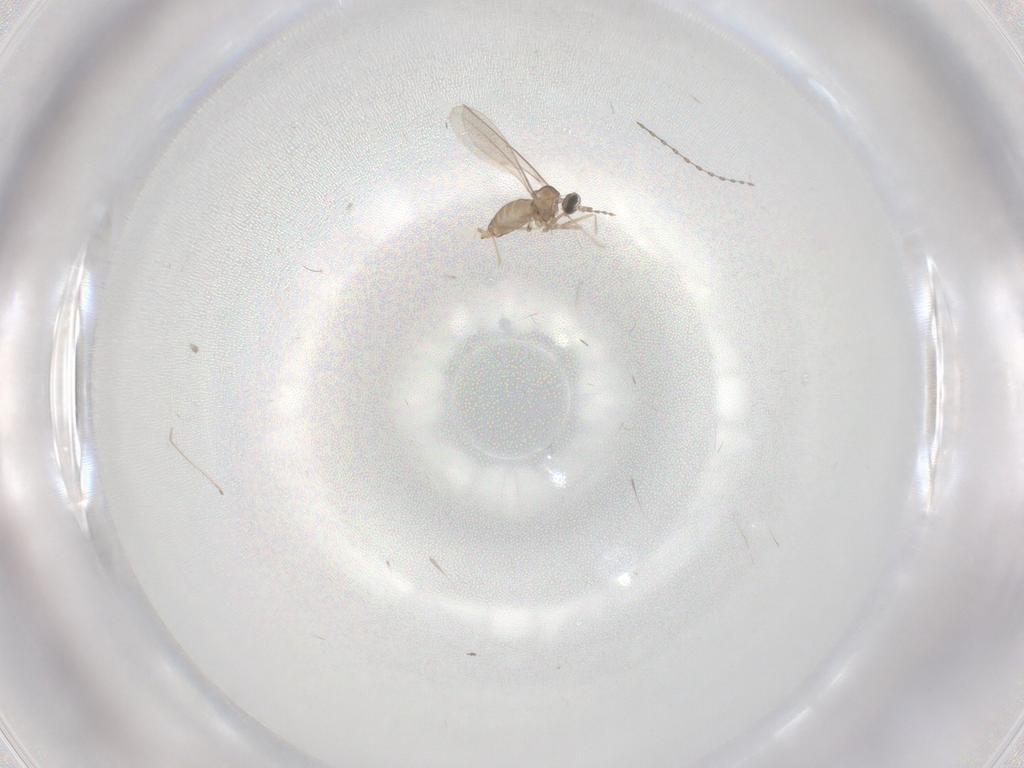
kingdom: Animalia
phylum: Arthropoda
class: Insecta
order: Diptera
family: Cecidomyiidae
